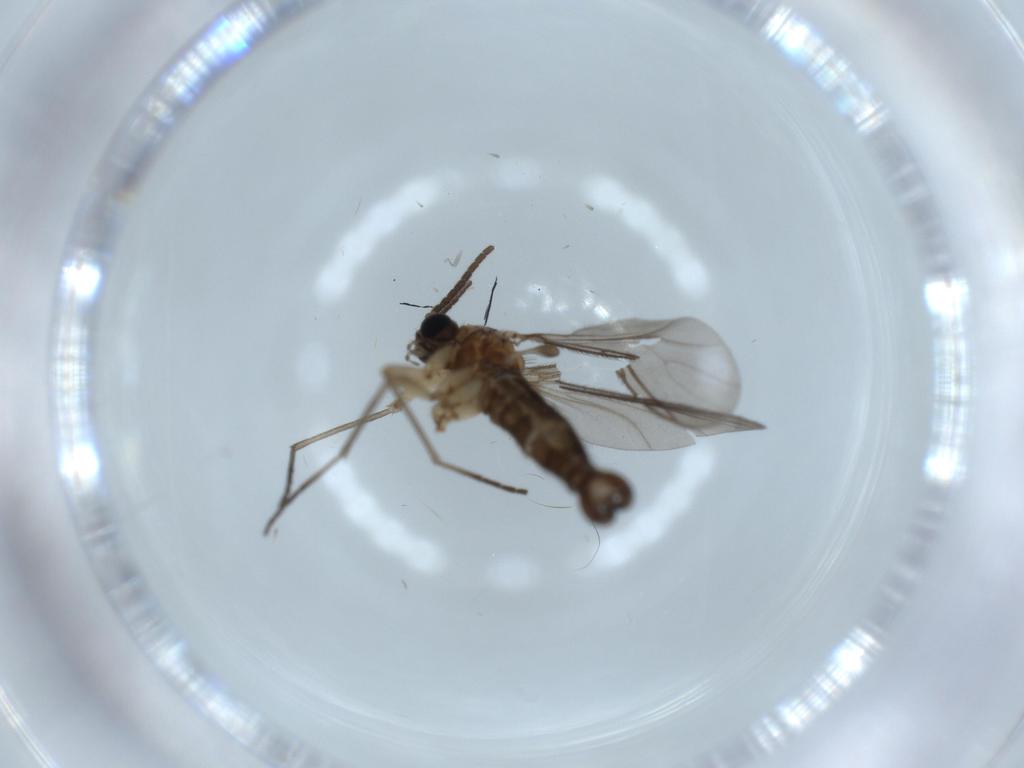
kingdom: Animalia
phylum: Arthropoda
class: Insecta
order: Diptera
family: Sciaridae
